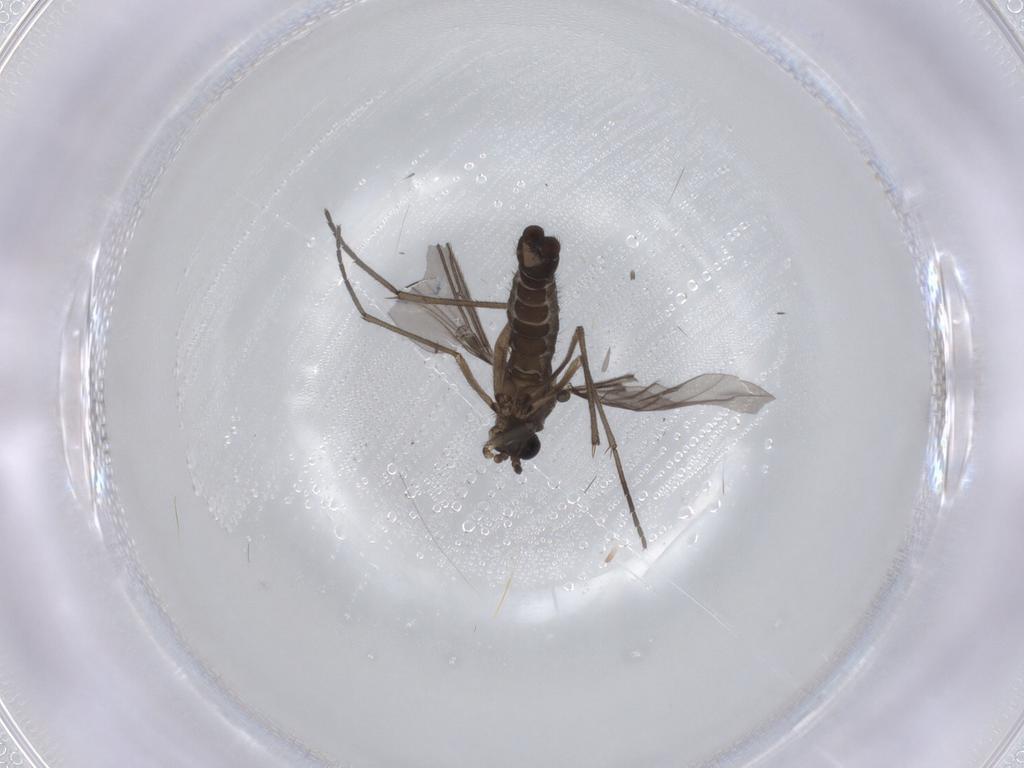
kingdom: Animalia
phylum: Arthropoda
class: Insecta
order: Diptera
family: Sciaridae
